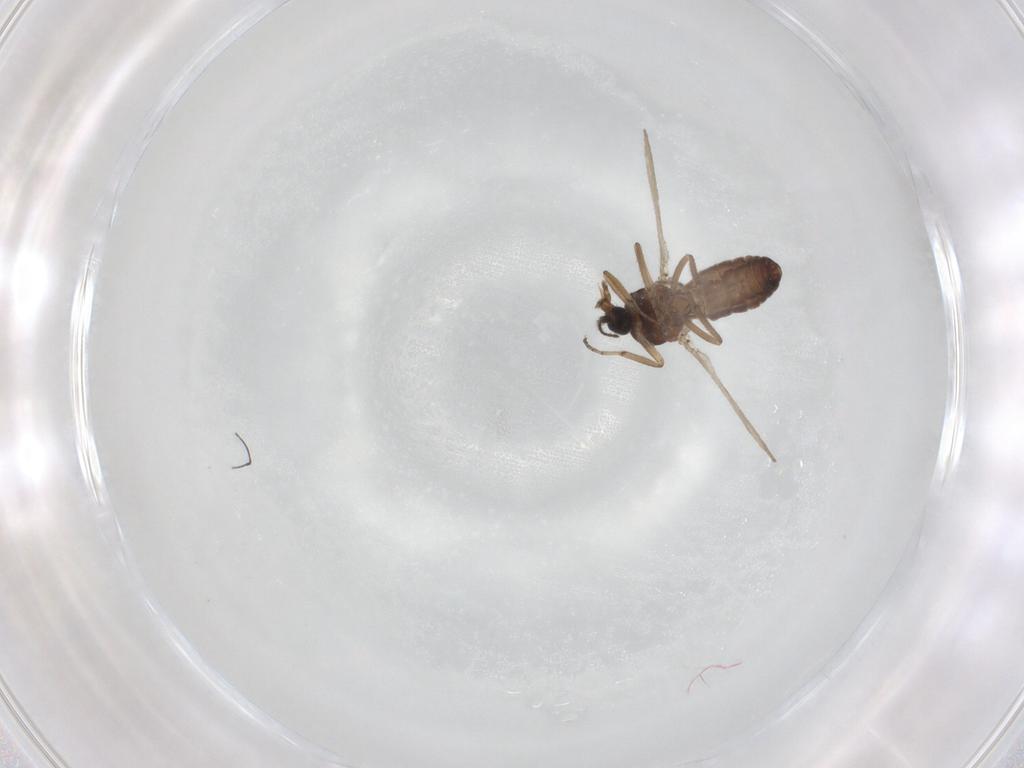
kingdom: Animalia
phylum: Arthropoda
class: Insecta
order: Diptera
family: Ceratopogonidae
